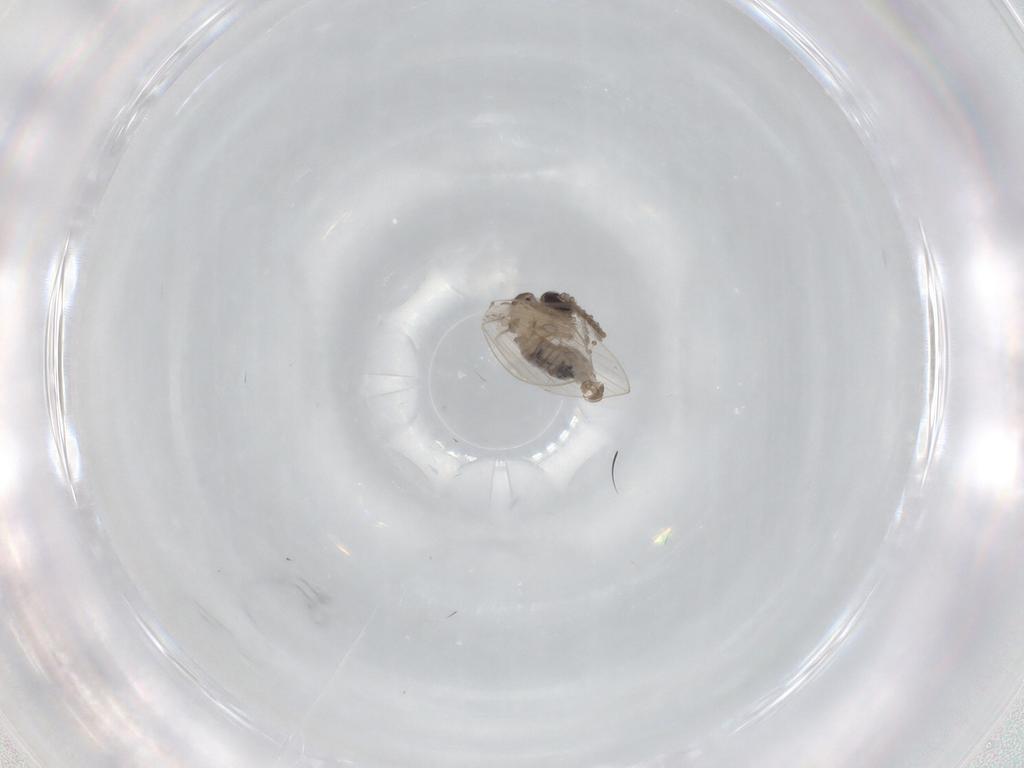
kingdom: Animalia
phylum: Arthropoda
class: Insecta
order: Diptera
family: Psychodidae
